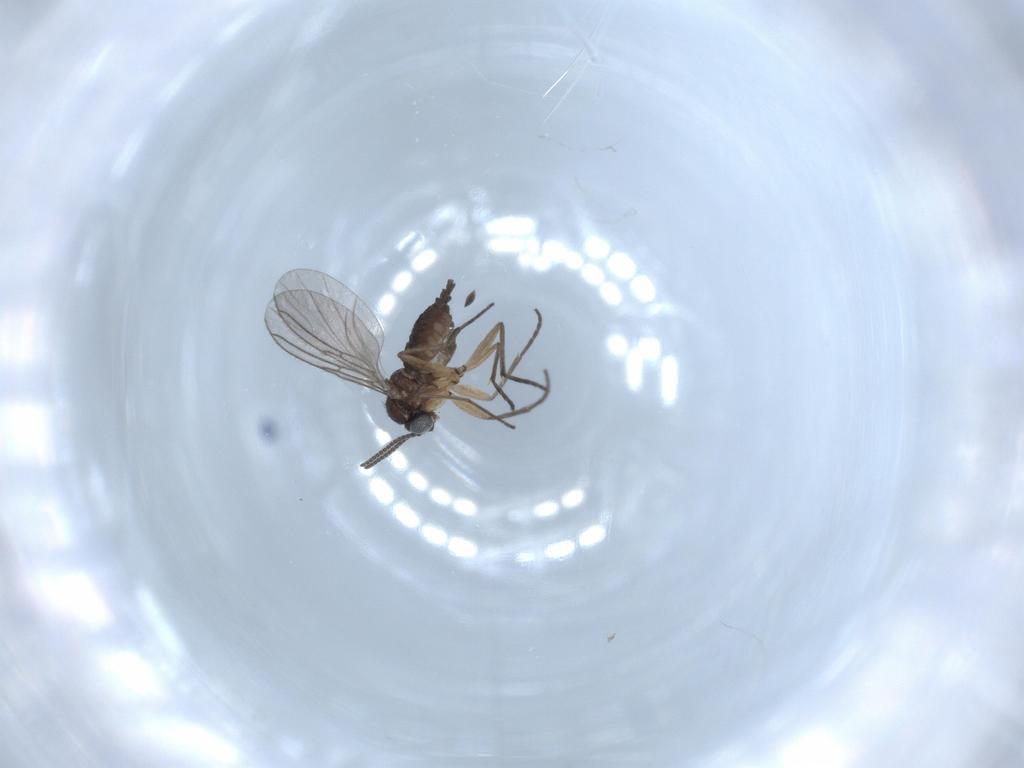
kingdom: Animalia
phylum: Arthropoda
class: Insecta
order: Diptera
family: Sciaridae
